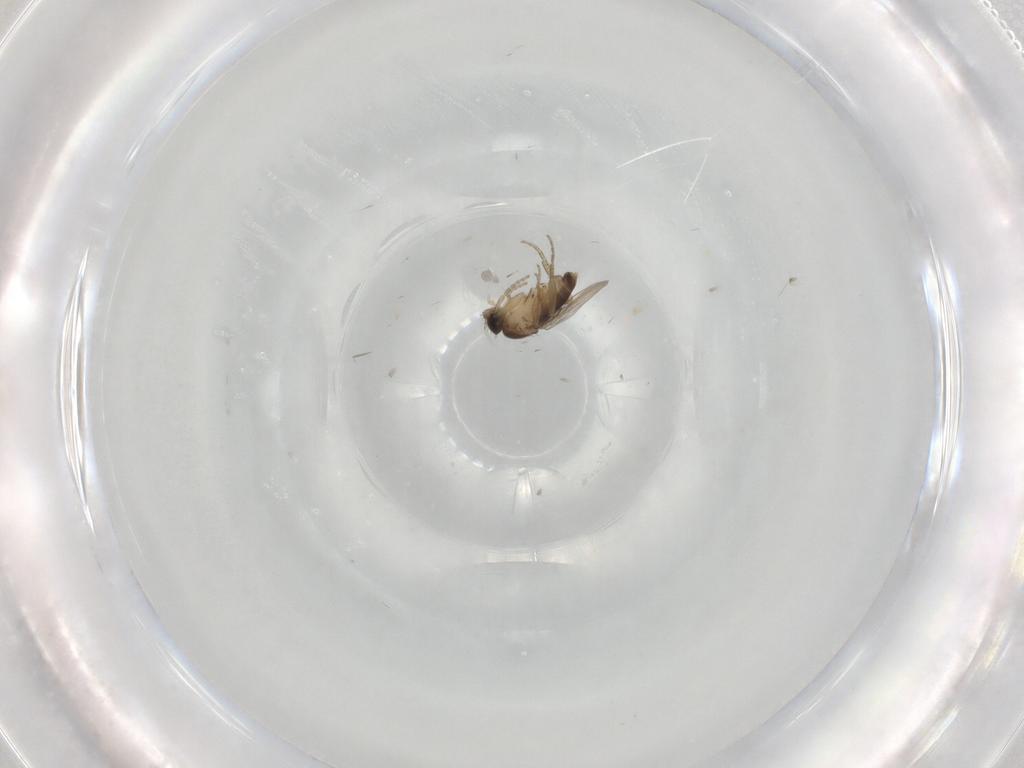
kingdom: Animalia
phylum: Arthropoda
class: Insecta
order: Diptera
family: Phoridae
